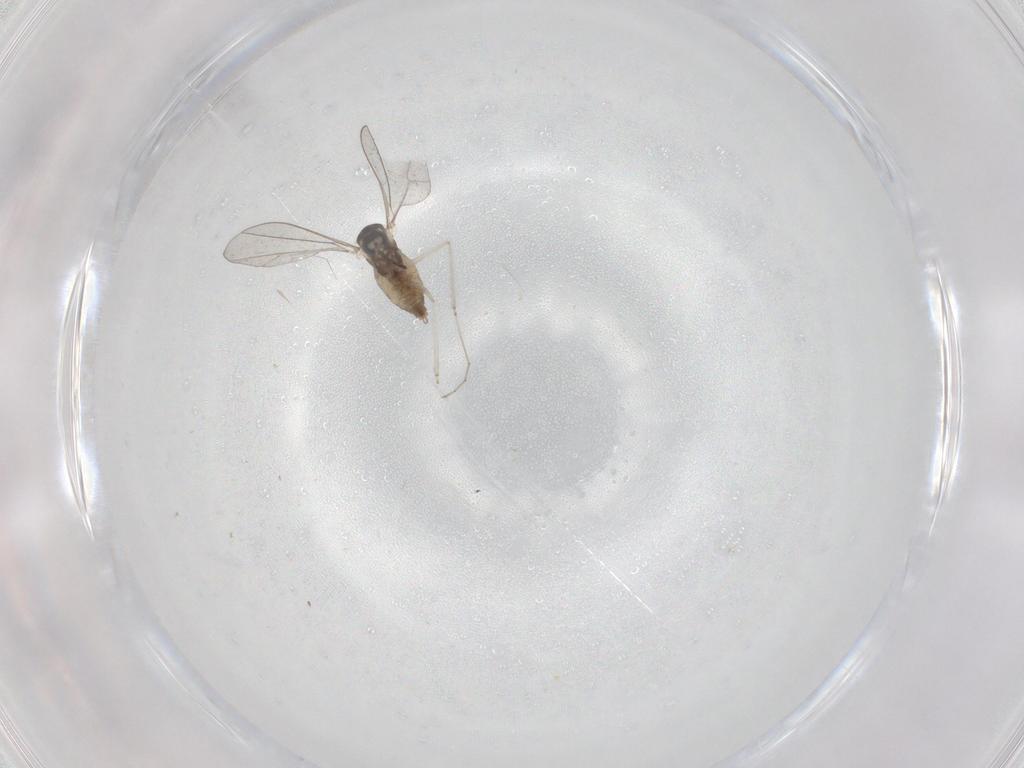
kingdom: Animalia
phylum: Arthropoda
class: Insecta
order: Diptera
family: Cecidomyiidae
